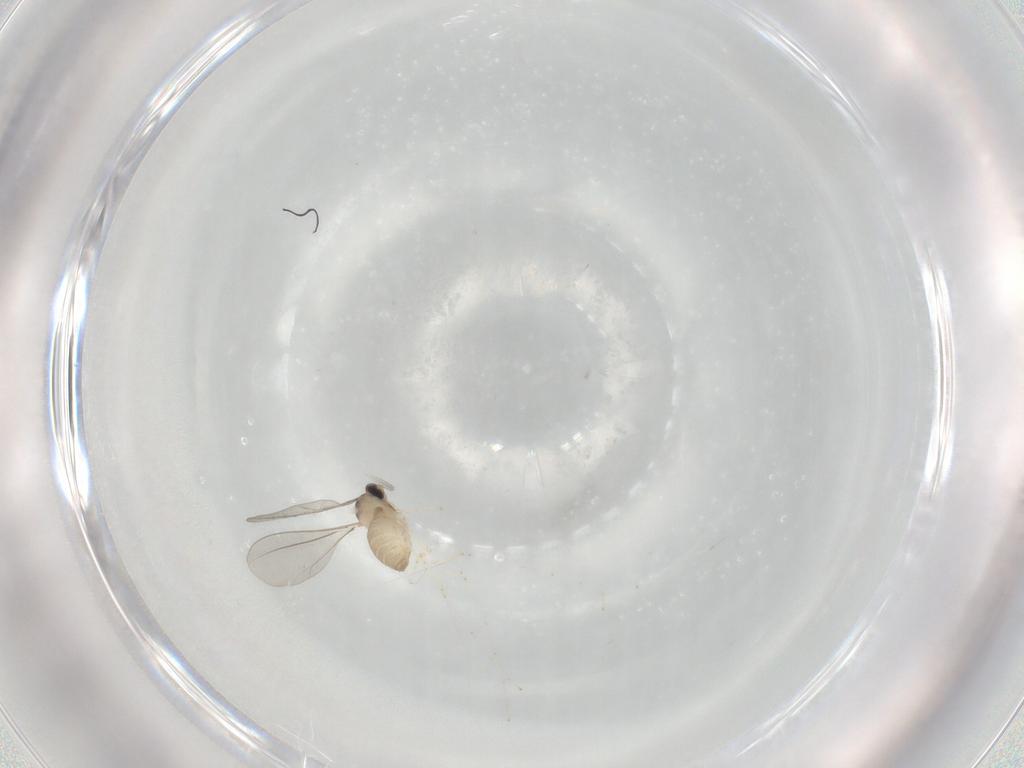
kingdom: Animalia
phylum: Arthropoda
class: Insecta
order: Diptera
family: Cecidomyiidae
